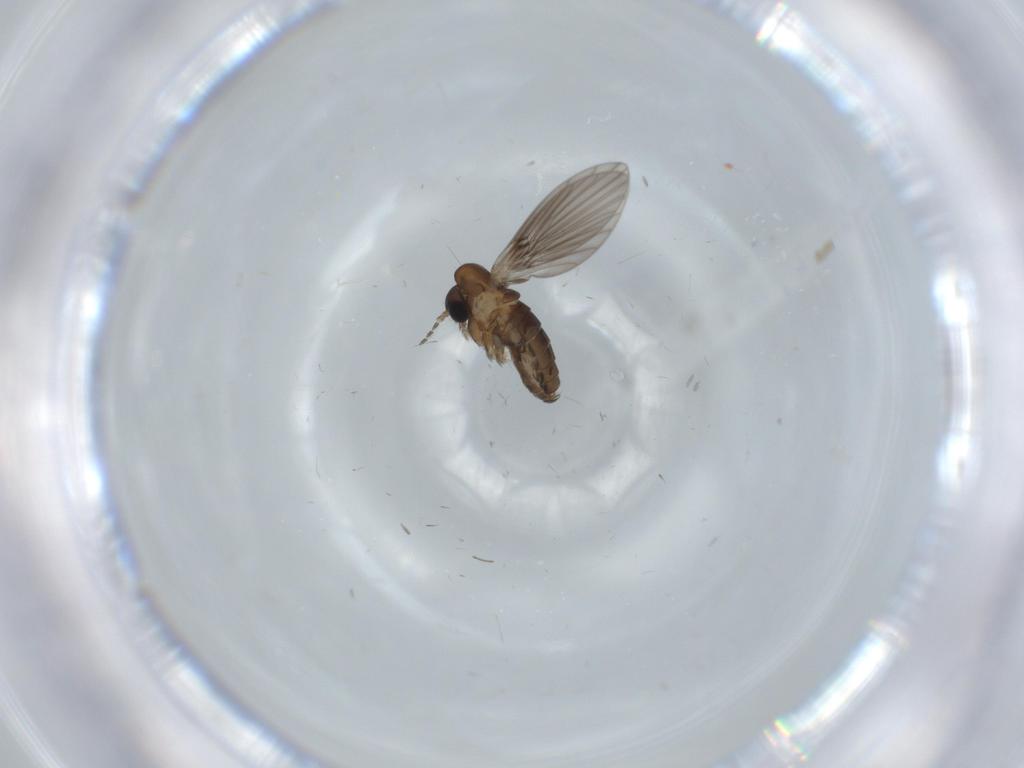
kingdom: Animalia
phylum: Arthropoda
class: Insecta
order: Diptera
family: Psychodidae
